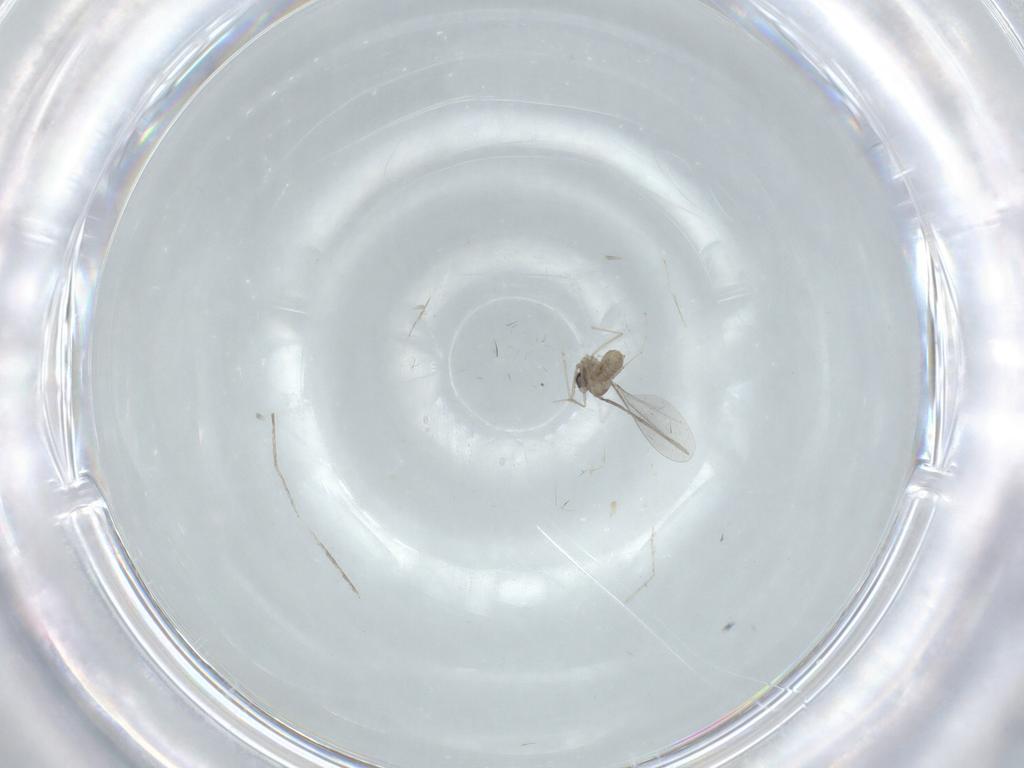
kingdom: Animalia
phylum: Arthropoda
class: Insecta
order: Diptera
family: Cecidomyiidae
